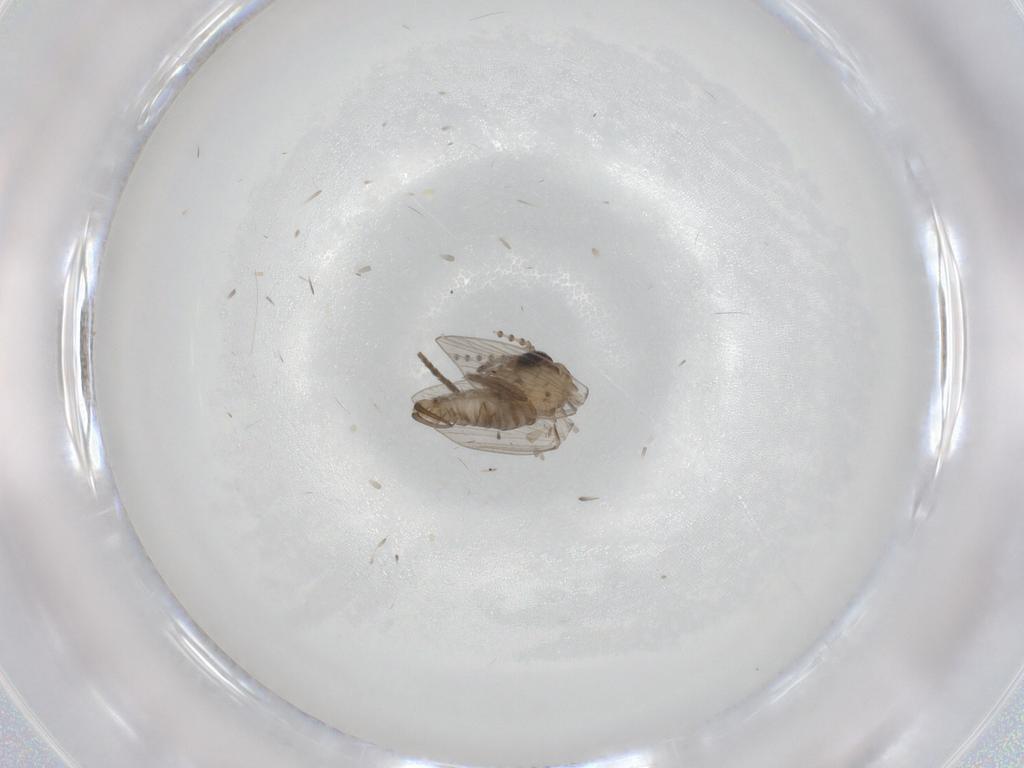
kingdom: Animalia
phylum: Arthropoda
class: Insecta
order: Diptera
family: Drosophilidae
